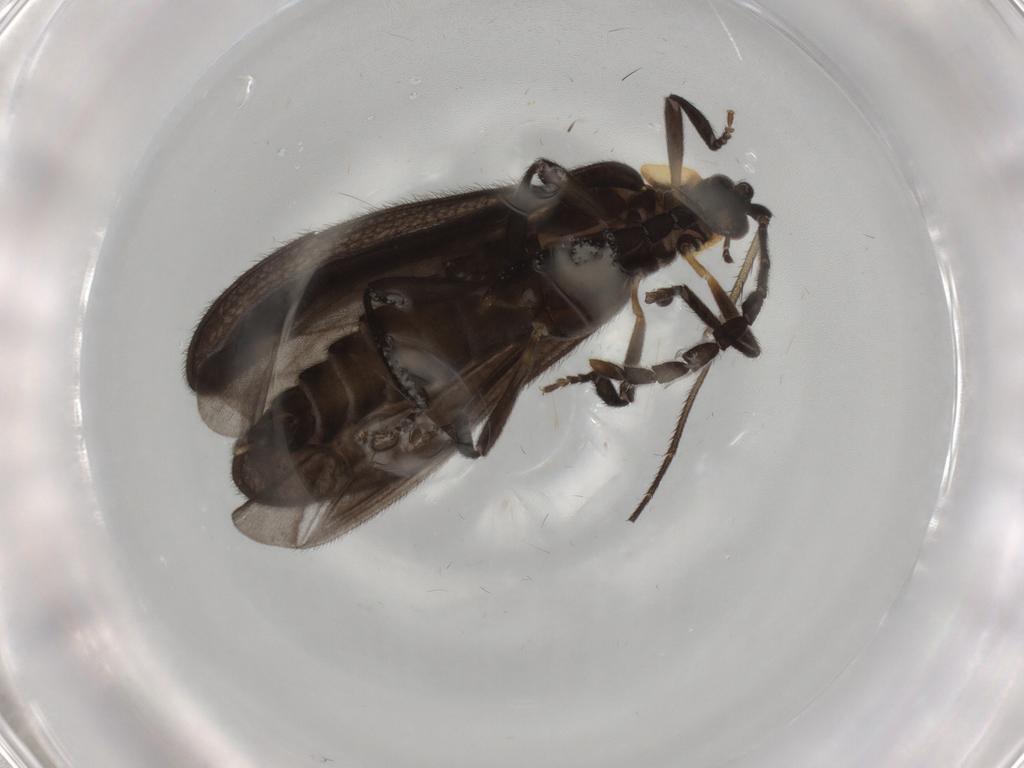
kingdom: Animalia
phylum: Arthropoda
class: Insecta
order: Coleoptera
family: Lycidae
